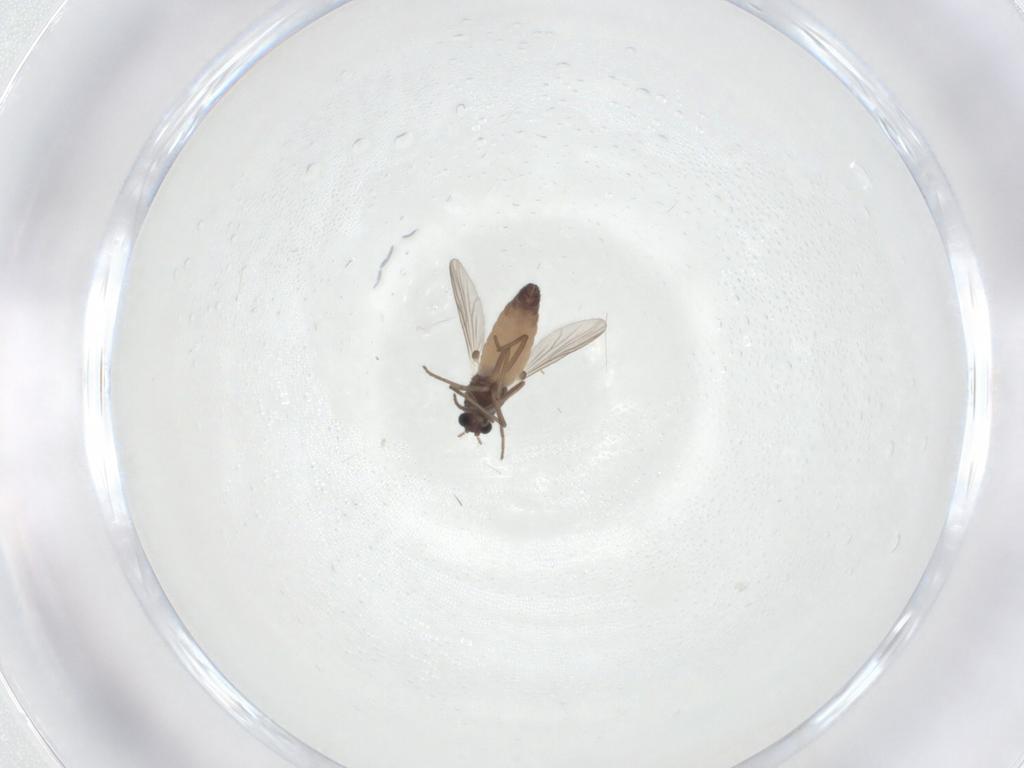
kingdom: Animalia
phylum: Arthropoda
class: Insecta
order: Diptera
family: Chironomidae
